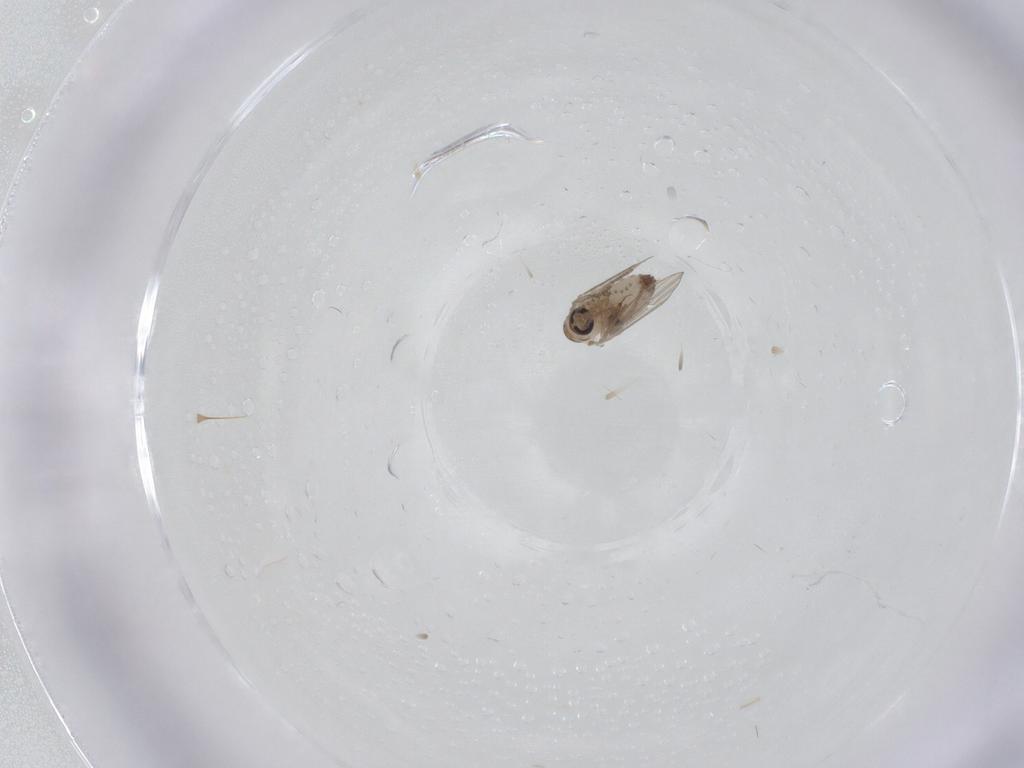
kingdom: Animalia
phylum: Arthropoda
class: Insecta
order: Diptera
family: Psychodidae
